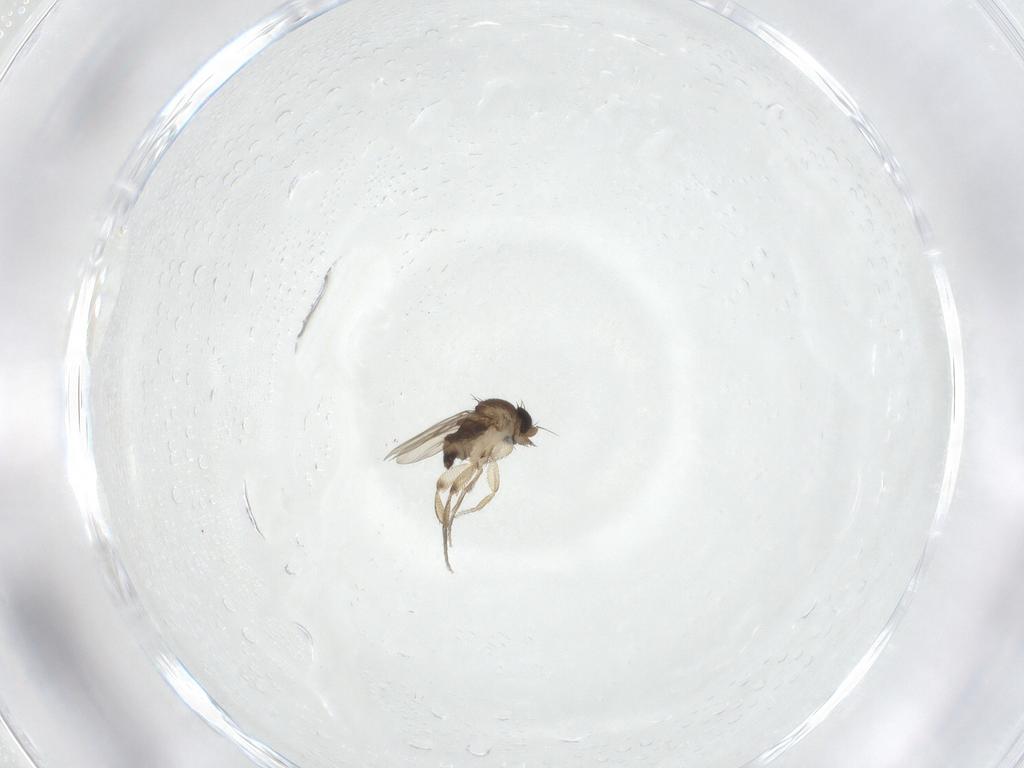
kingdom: Animalia
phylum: Arthropoda
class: Insecta
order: Diptera
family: Phoridae
